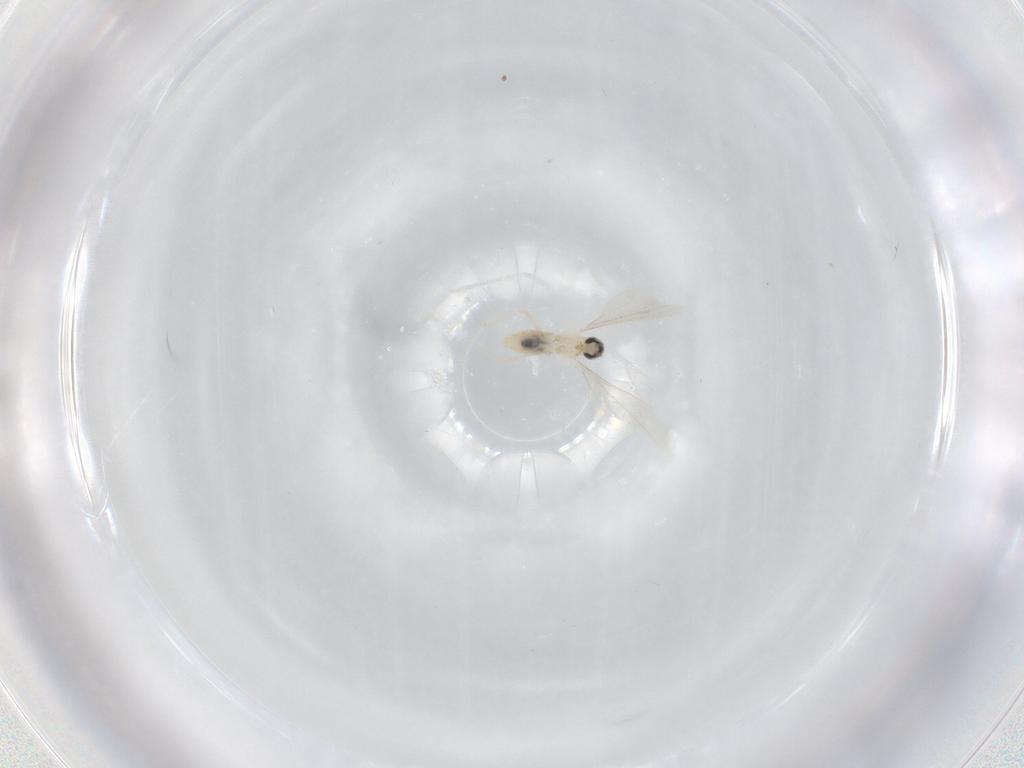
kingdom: Animalia
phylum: Arthropoda
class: Insecta
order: Diptera
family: Cecidomyiidae
